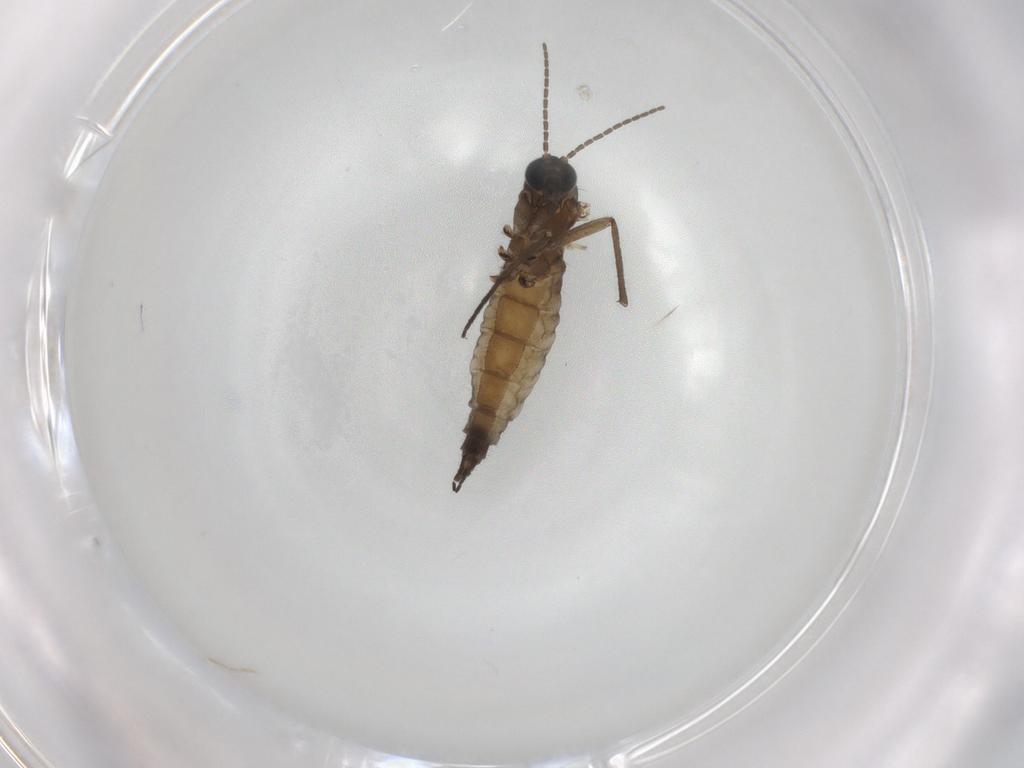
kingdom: Animalia
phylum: Arthropoda
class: Insecta
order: Diptera
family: Sciaridae
